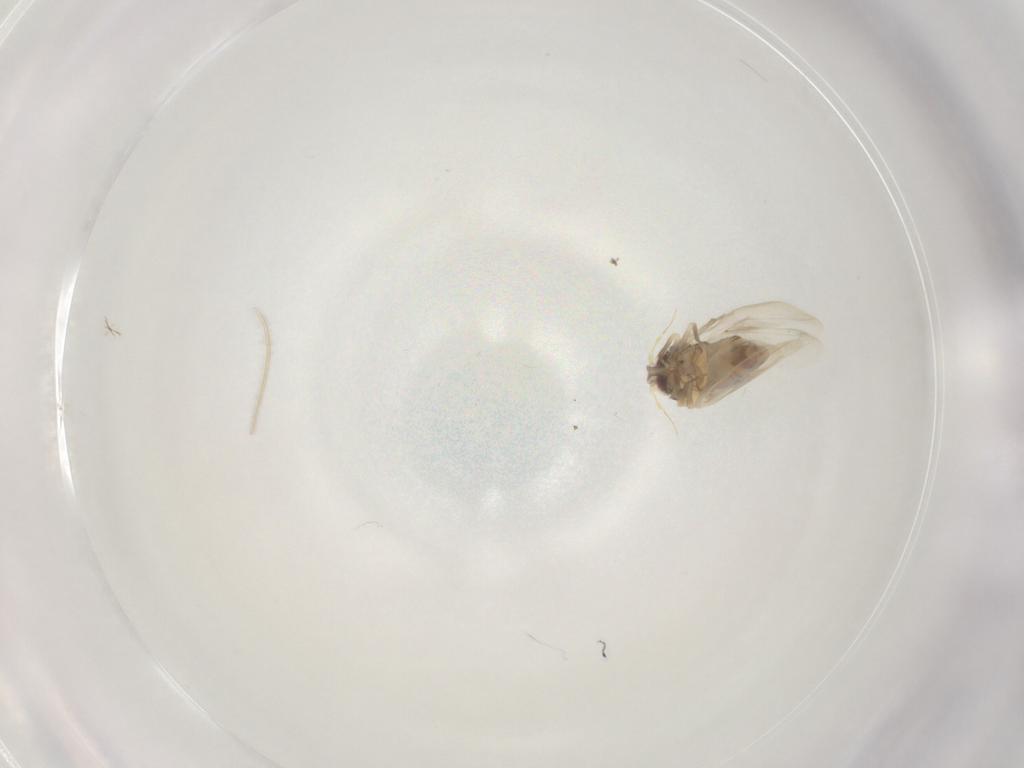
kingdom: Animalia
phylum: Arthropoda
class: Insecta
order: Hemiptera
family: Aleyrodidae
